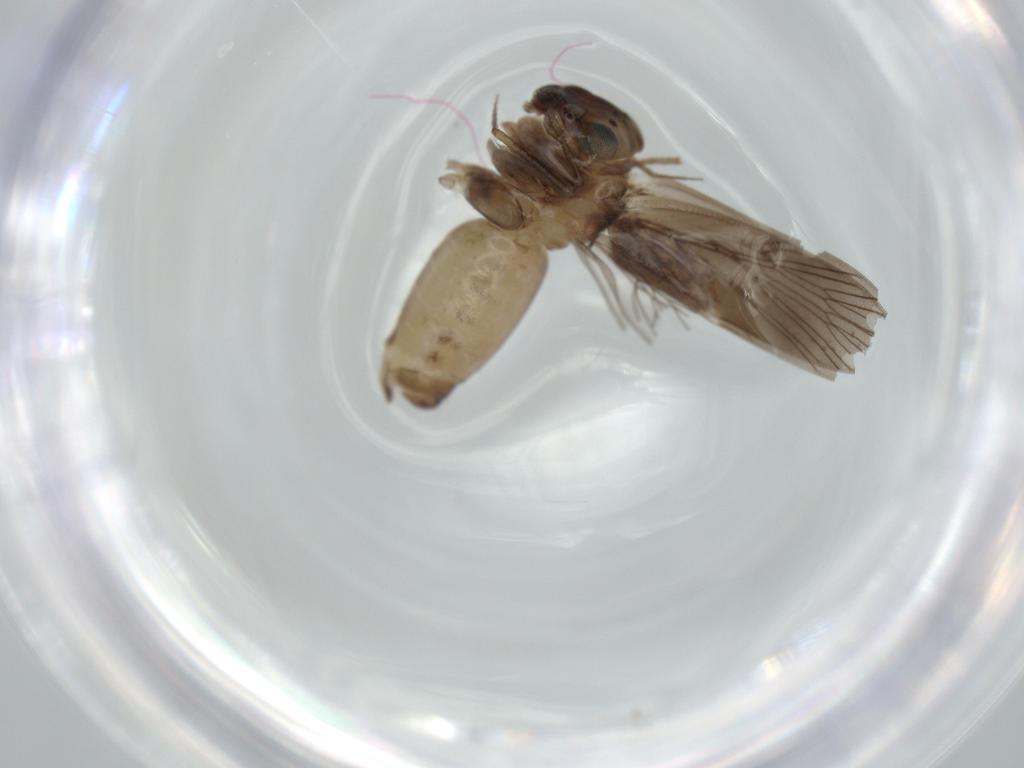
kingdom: Animalia
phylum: Arthropoda
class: Insecta
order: Psocodea
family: Lepidopsocidae
